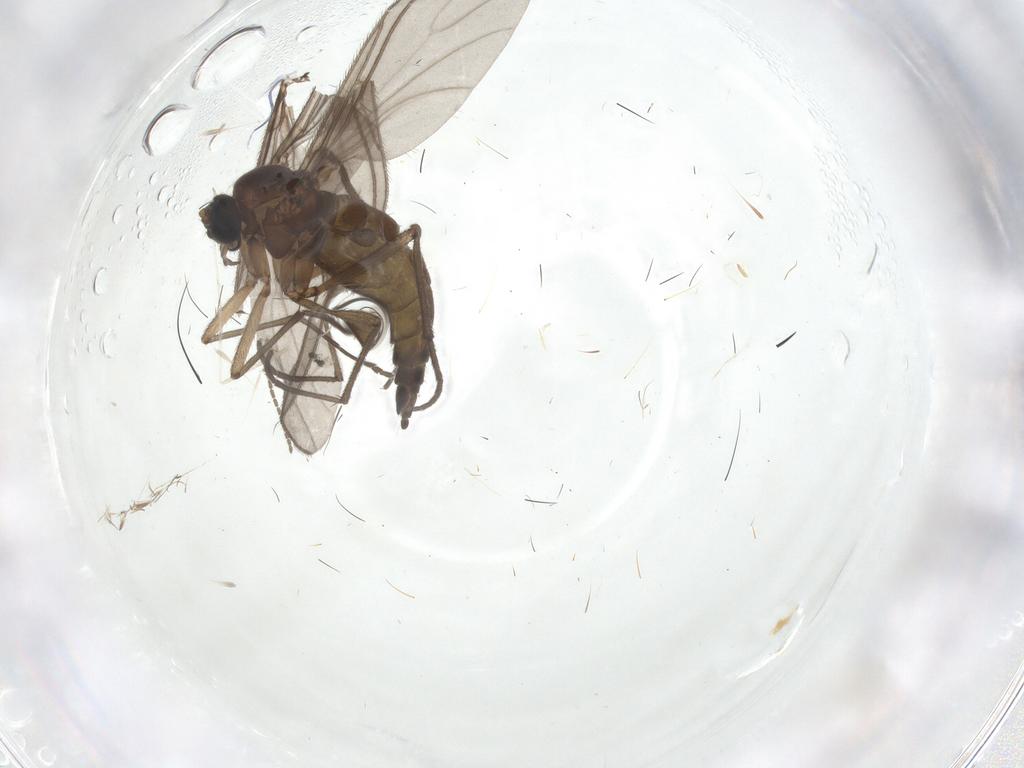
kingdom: Animalia
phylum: Arthropoda
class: Insecta
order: Diptera
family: Sciaridae
